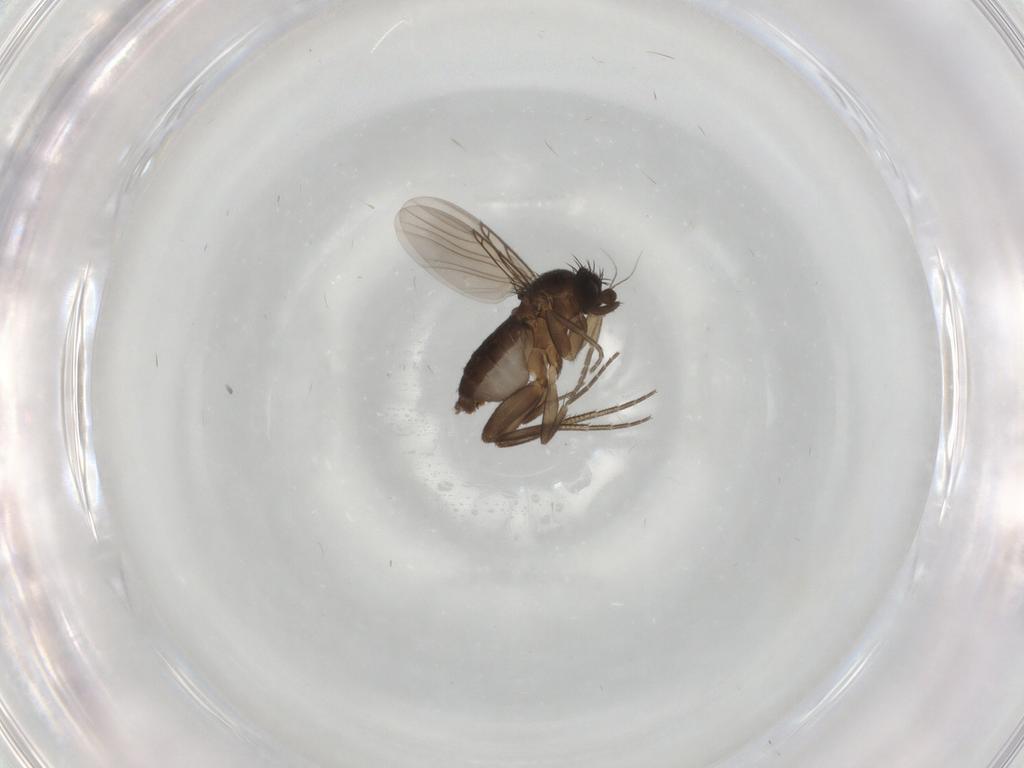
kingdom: Animalia
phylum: Arthropoda
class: Insecta
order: Diptera
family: Phoridae
